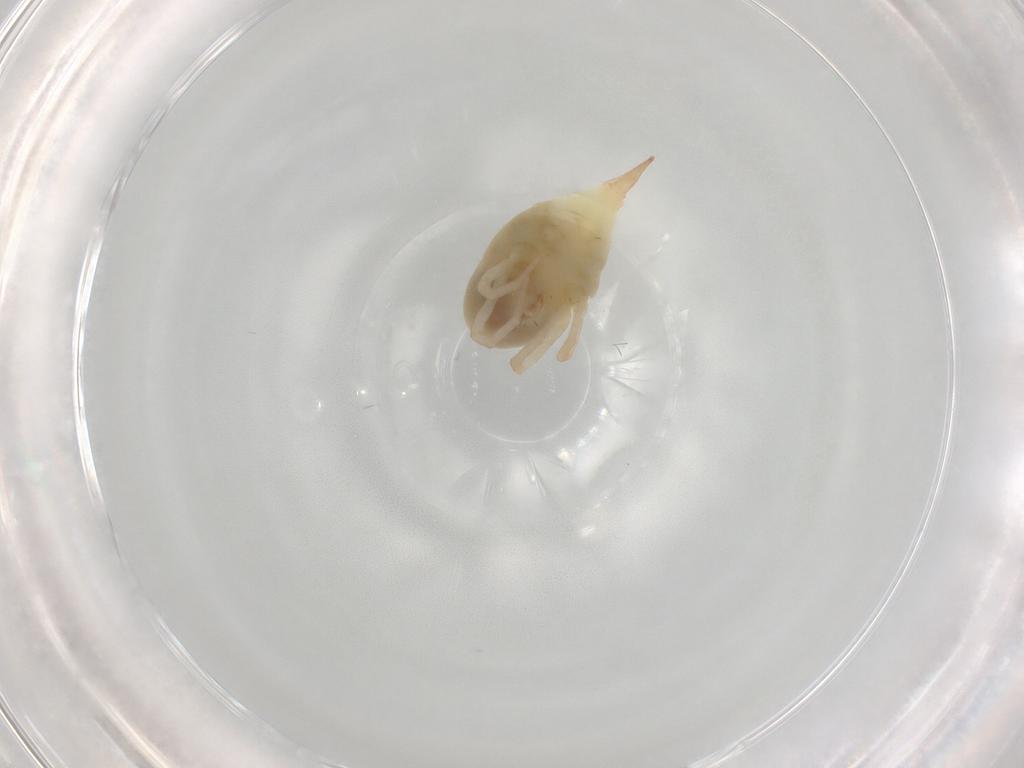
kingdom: Animalia
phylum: Arthropoda
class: Arachnida
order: Trombidiformes
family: Bdellidae
